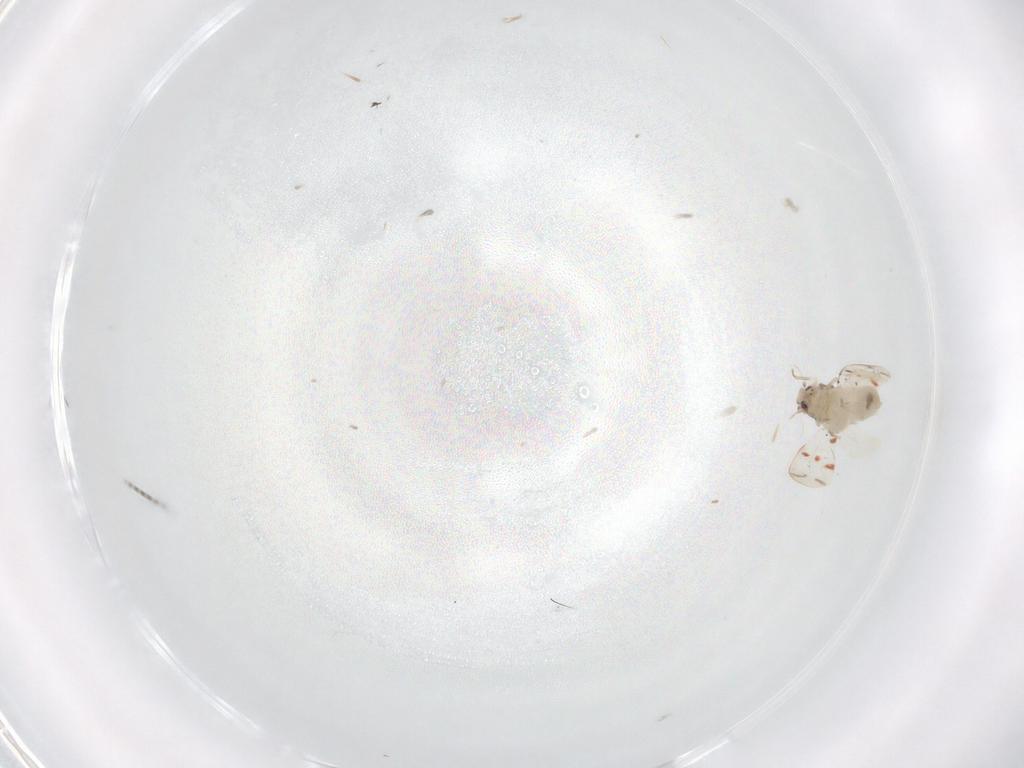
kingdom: Animalia
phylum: Arthropoda
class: Insecta
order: Hemiptera
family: Aleyrodidae
